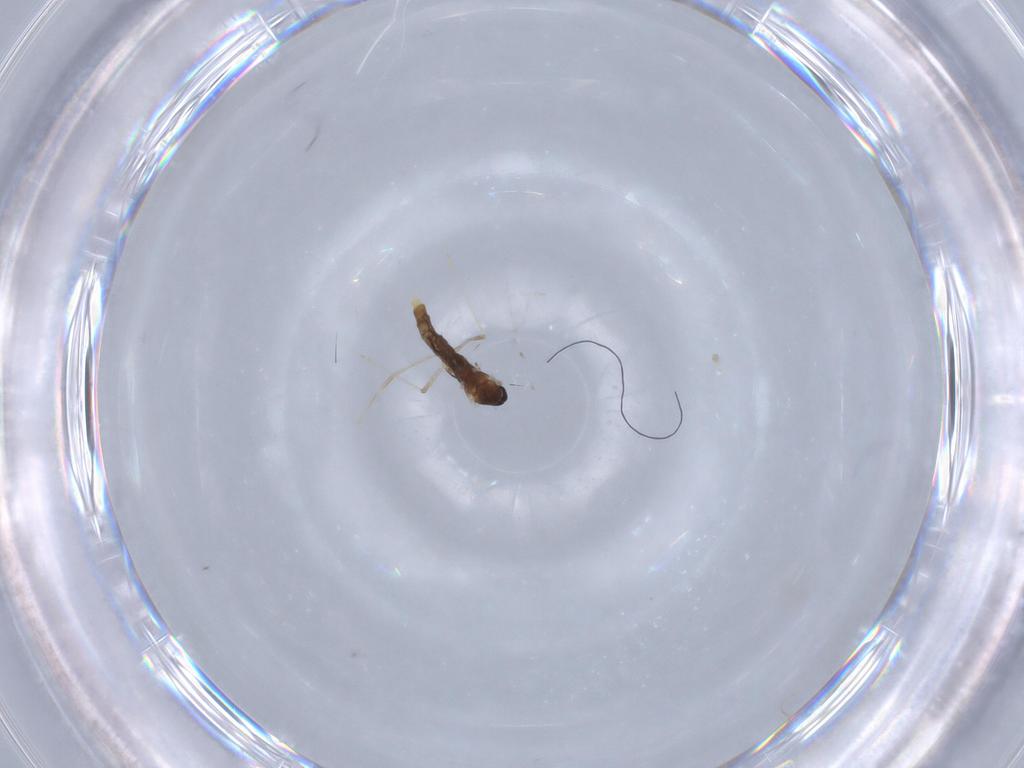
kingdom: Animalia
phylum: Arthropoda
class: Insecta
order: Diptera
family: Cecidomyiidae
